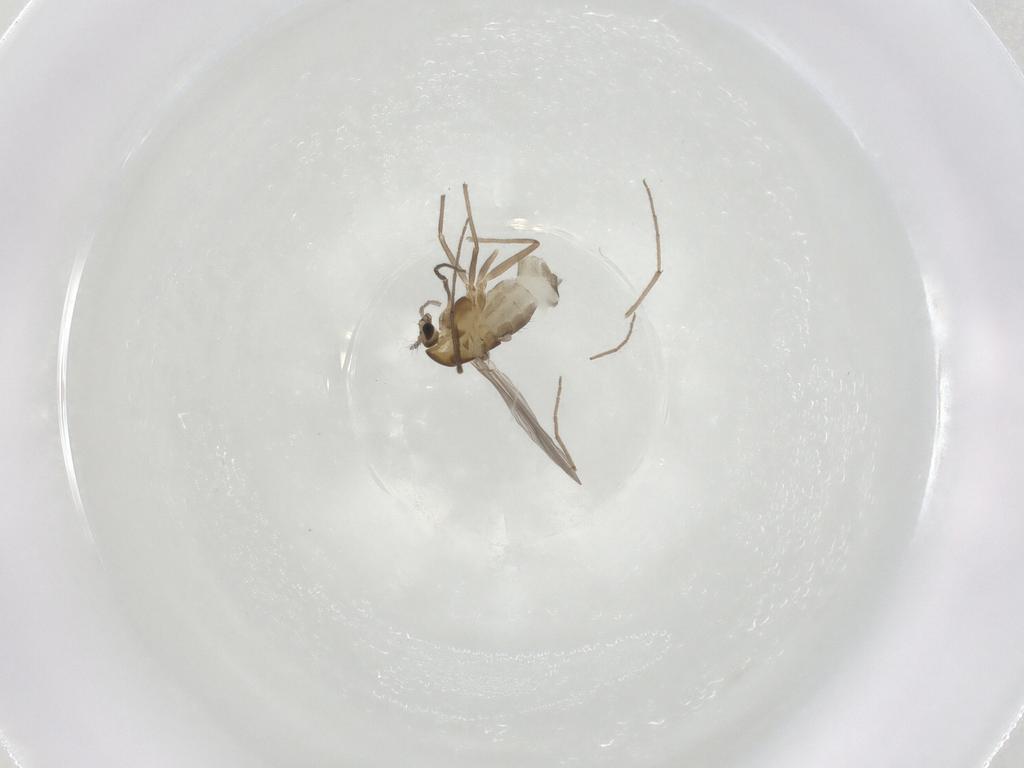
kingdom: Animalia
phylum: Arthropoda
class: Insecta
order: Diptera
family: Chironomidae
